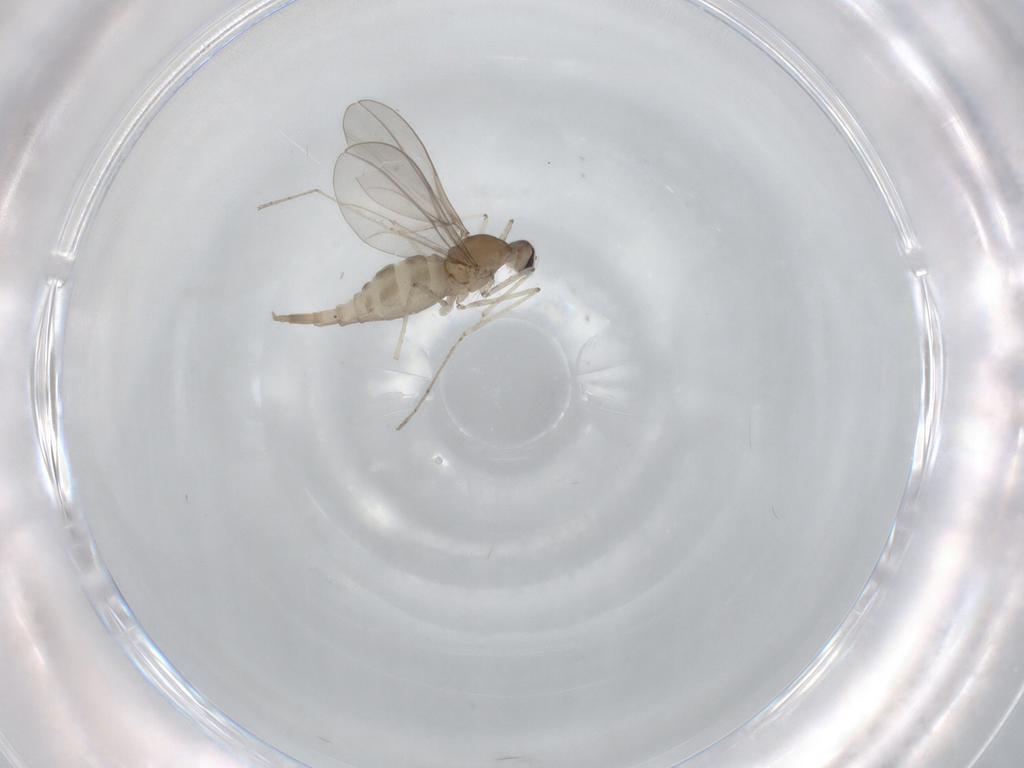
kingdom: Animalia
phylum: Arthropoda
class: Insecta
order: Diptera
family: Cecidomyiidae
